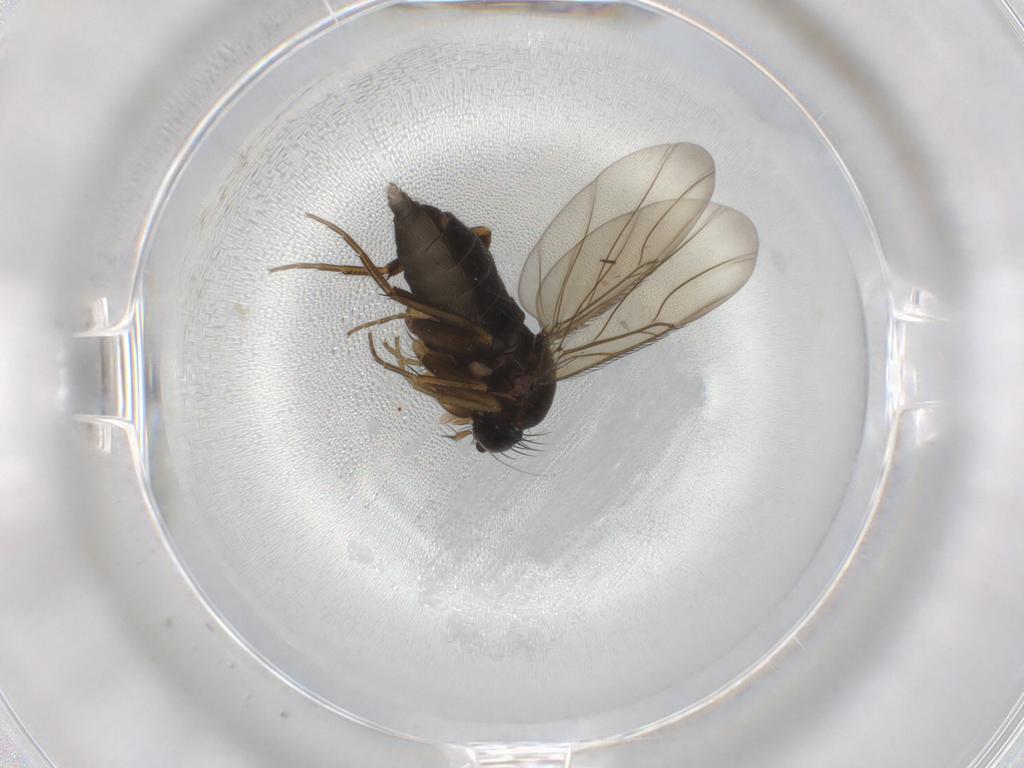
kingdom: Animalia
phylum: Arthropoda
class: Insecta
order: Diptera
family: Phoridae
